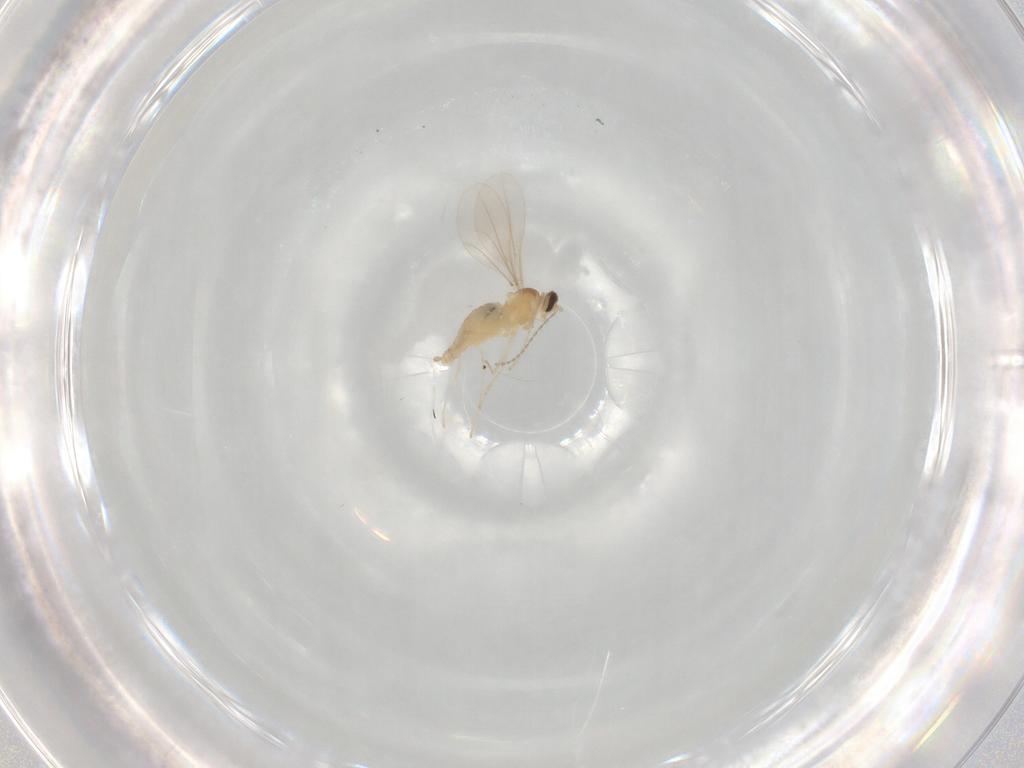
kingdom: Animalia
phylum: Arthropoda
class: Insecta
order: Diptera
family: Cecidomyiidae
